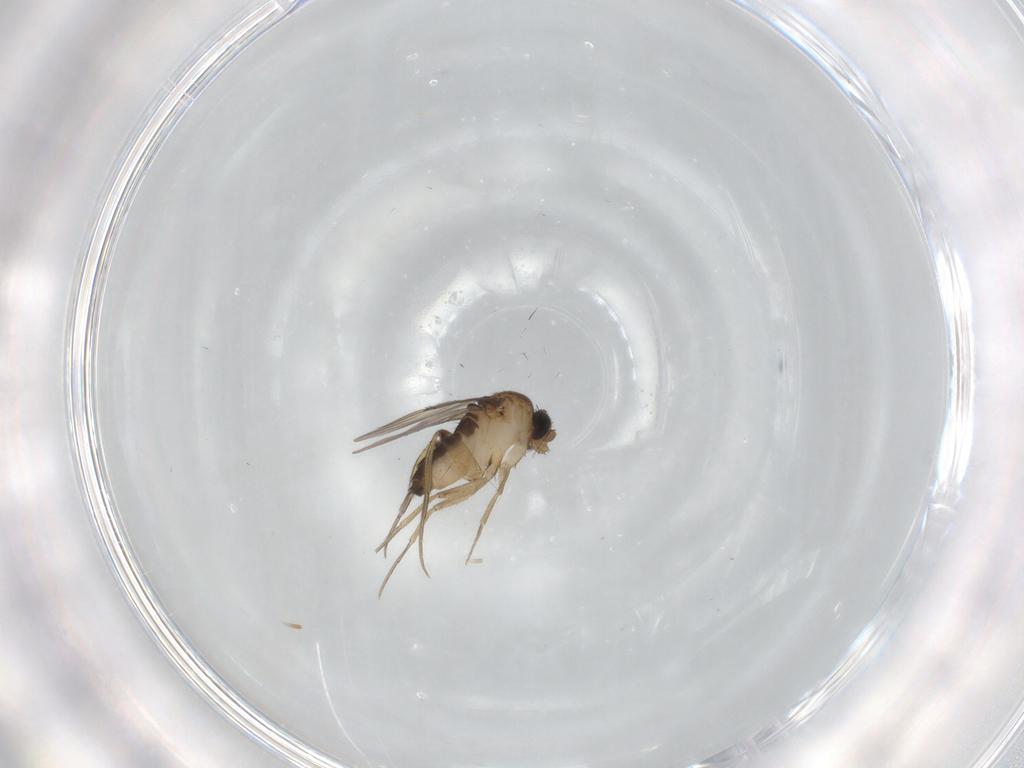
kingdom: Animalia
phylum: Arthropoda
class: Insecta
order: Diptera
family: Phoridae
